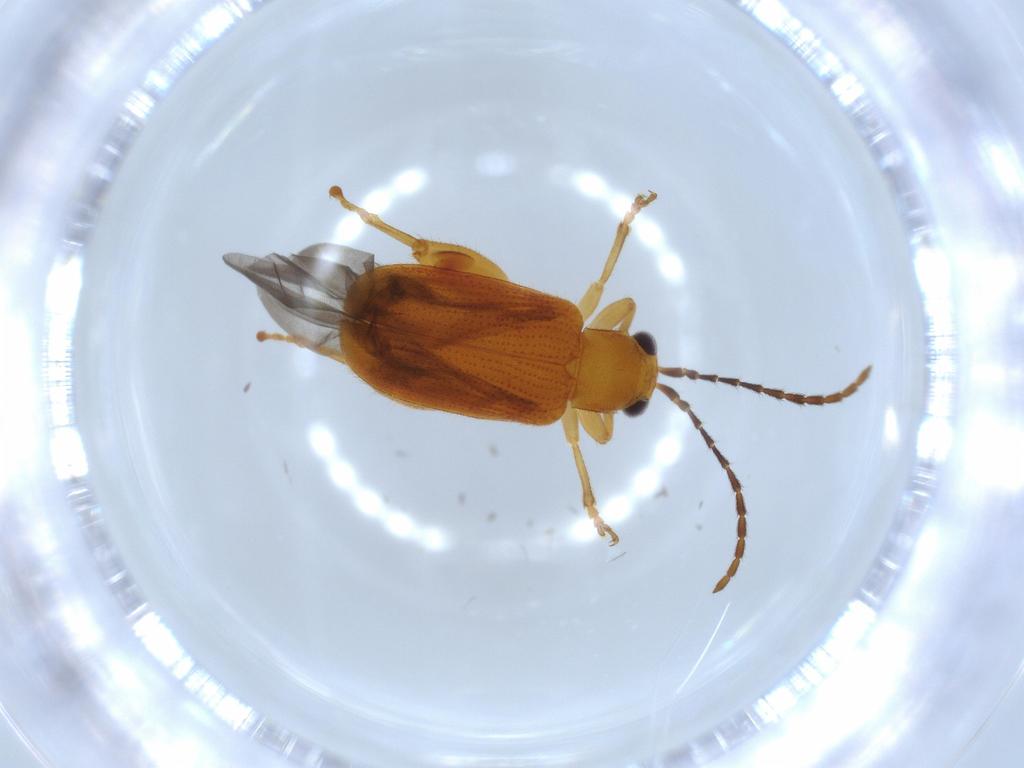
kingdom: Animalia
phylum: Arthropoda
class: Insecta
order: Coleoptera
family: Chrysomelidae
